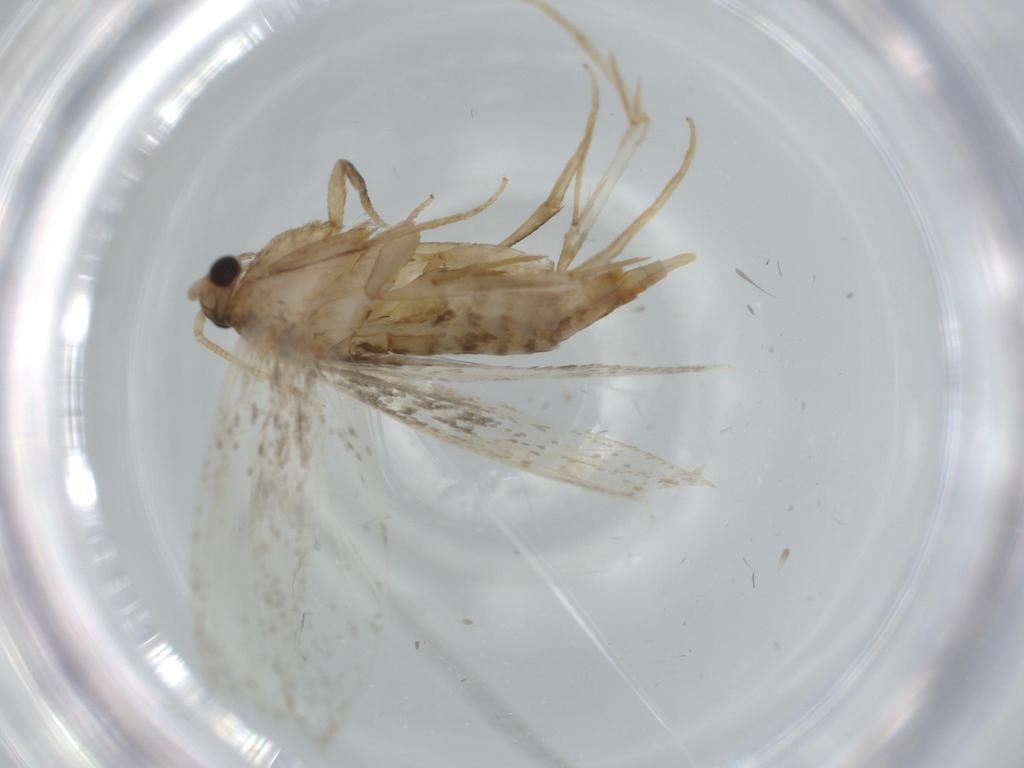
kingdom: Animalia
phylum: Arthropoda
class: Insecta
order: Lepidoptera
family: Tineidae
